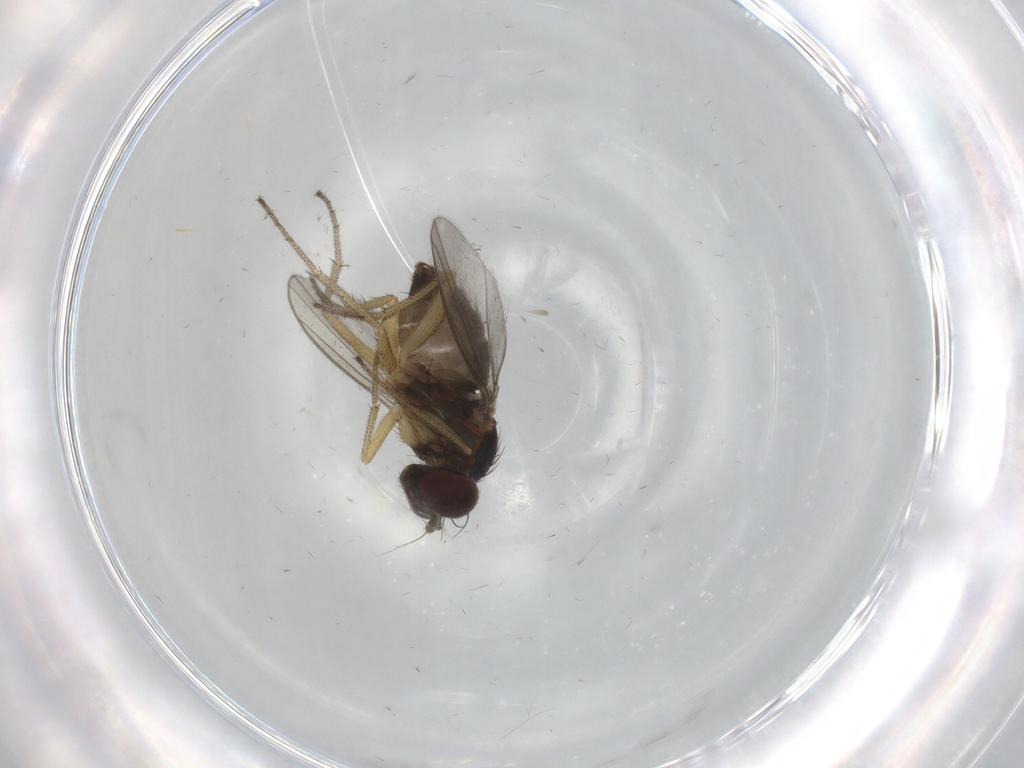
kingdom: Animalia
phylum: Arthropoda
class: Insecta
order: Diptera
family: Dolichopodidae
